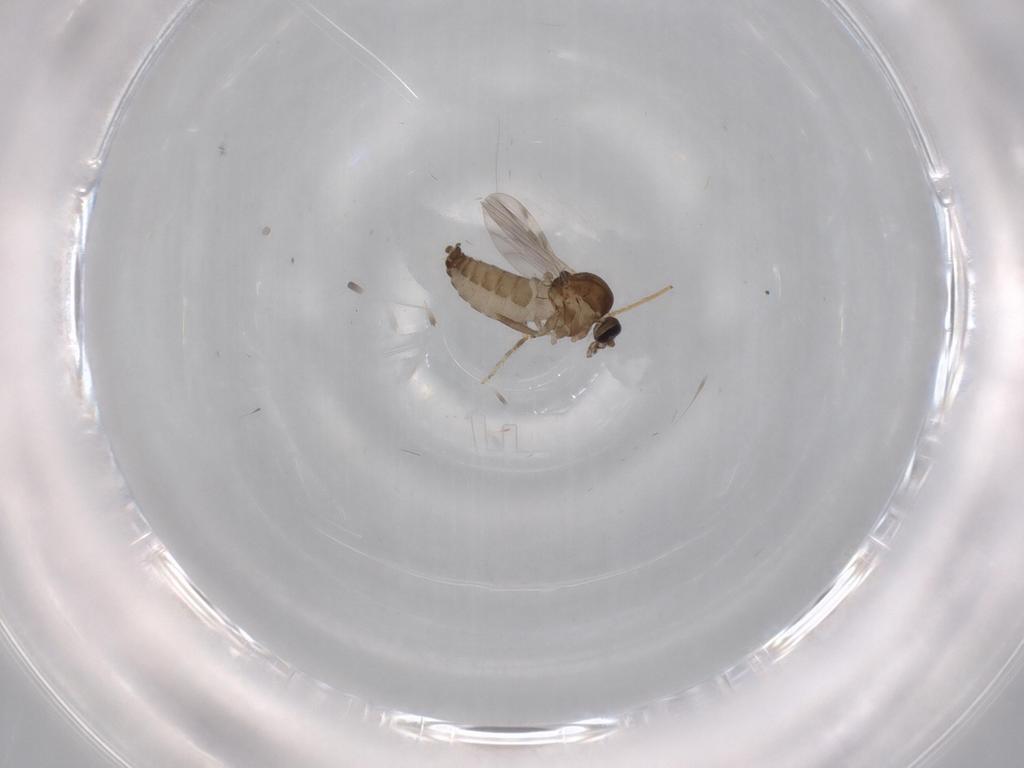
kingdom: Animalia
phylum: Arthropoda
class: Insecta
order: Diptera
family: Ceratopogonidae
